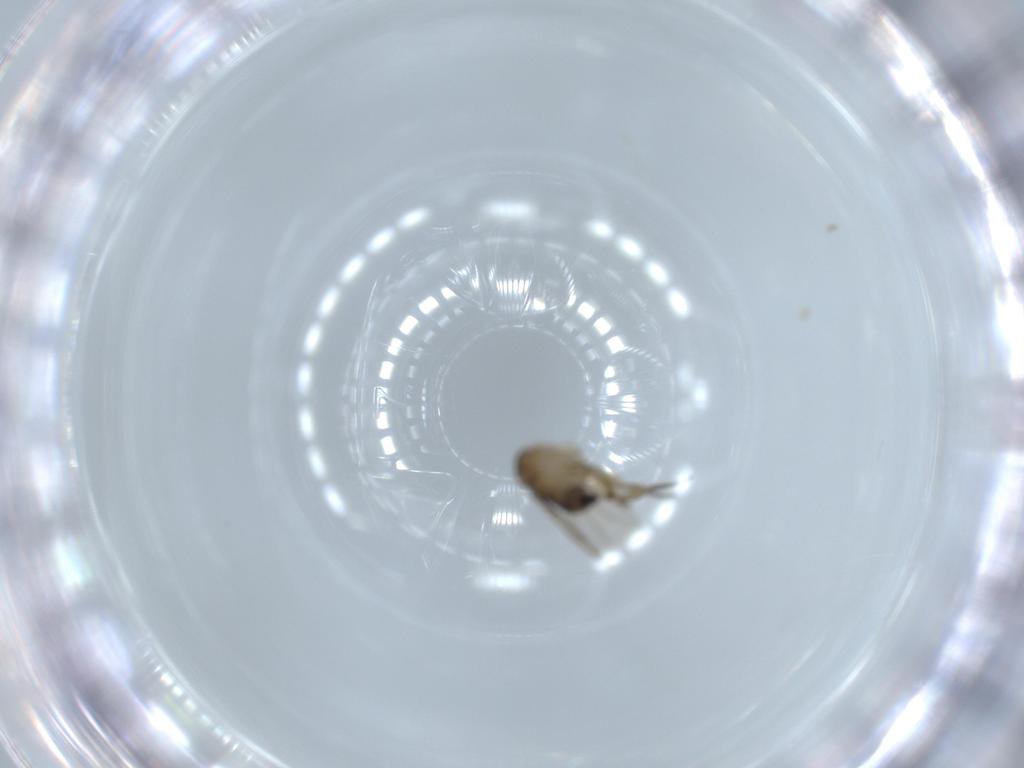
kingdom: Animalia
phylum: Arthropoda
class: Insecta
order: Diptera
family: Phoridae
